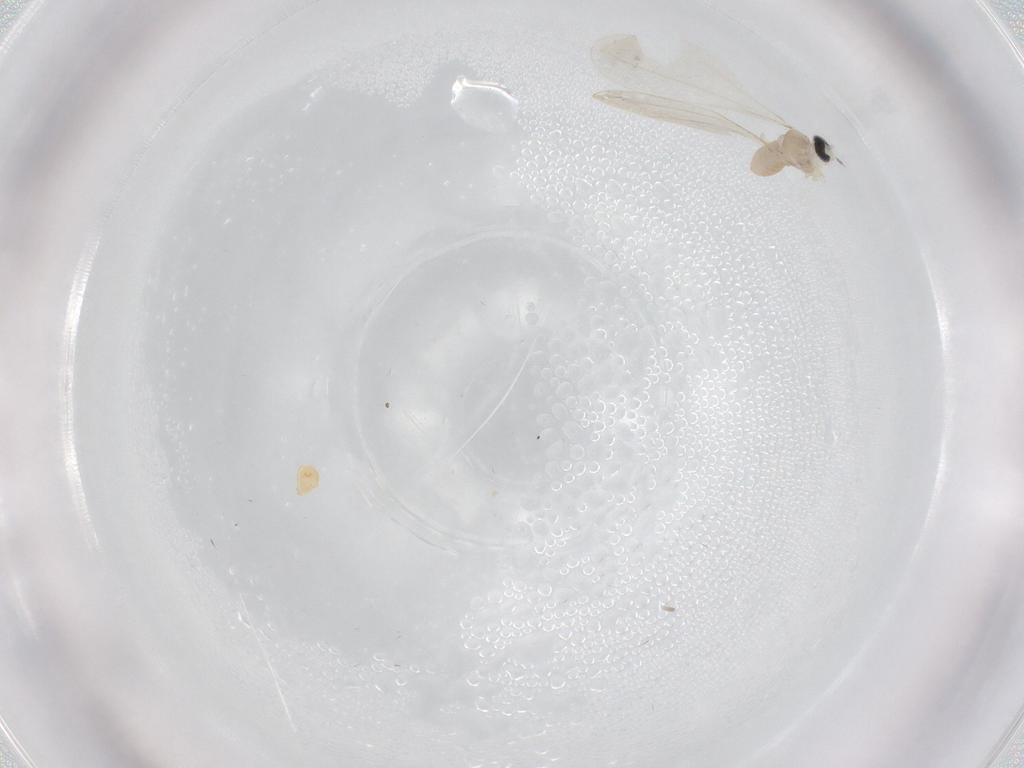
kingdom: Animalia
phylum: Arthropoda
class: Insecta
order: Diptera
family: Cecidomyiidae
